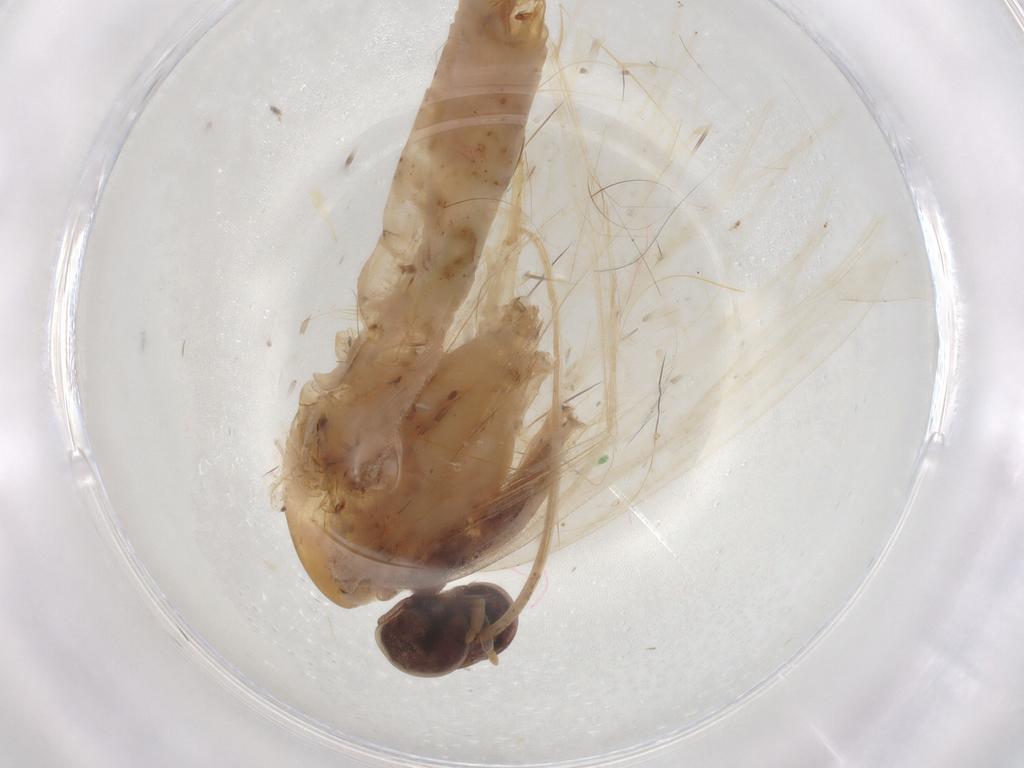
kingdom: Animalia
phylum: Arthropoda
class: Insecta
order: Lepidoptera
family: Geometridae
